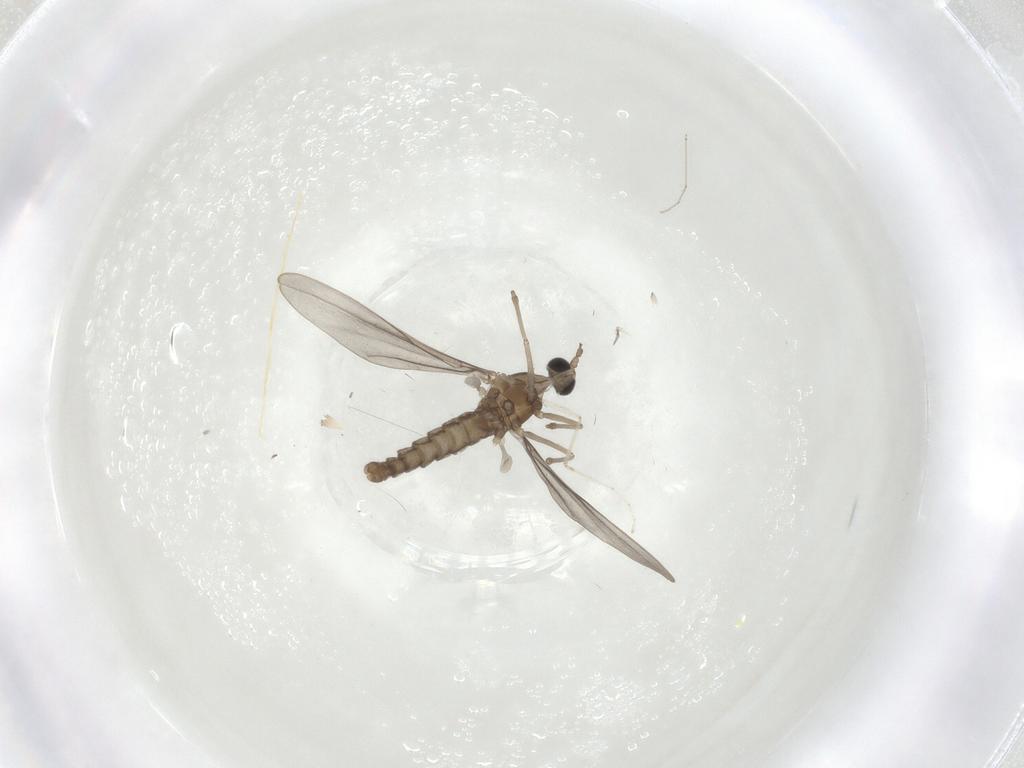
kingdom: Animalia
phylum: Arthropoda
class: Insecta
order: Diptera
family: Cecidomyiidae
